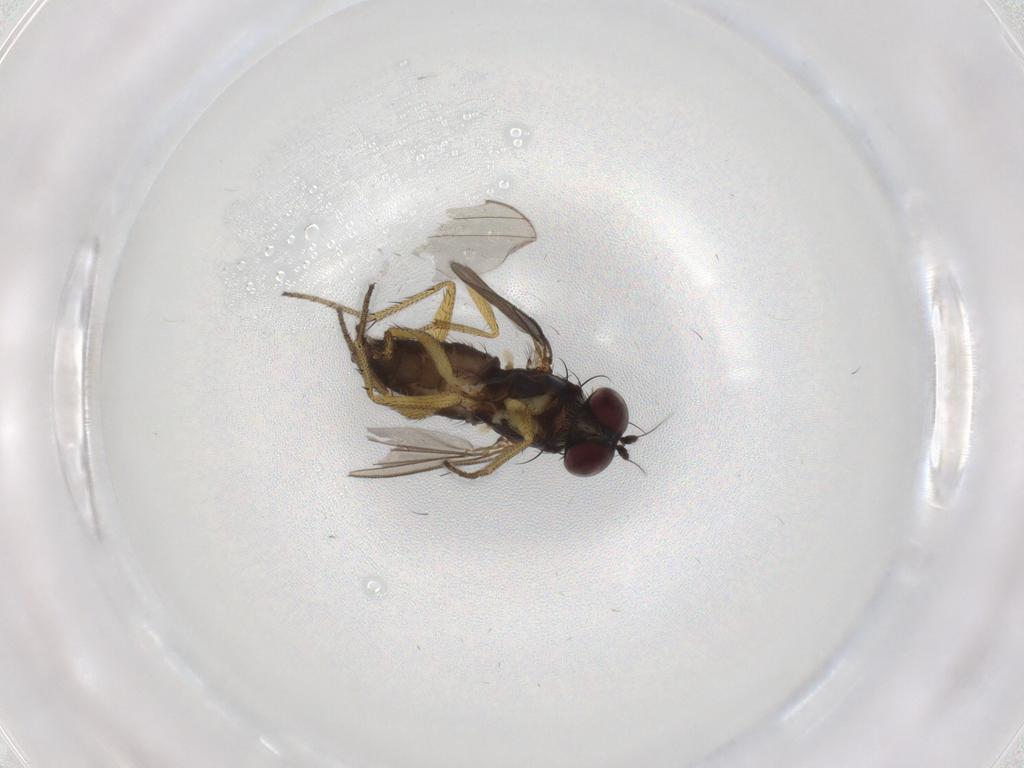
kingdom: Animalia
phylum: Arthropoda
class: Insecta
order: Diptera
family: Dolichopodidae
